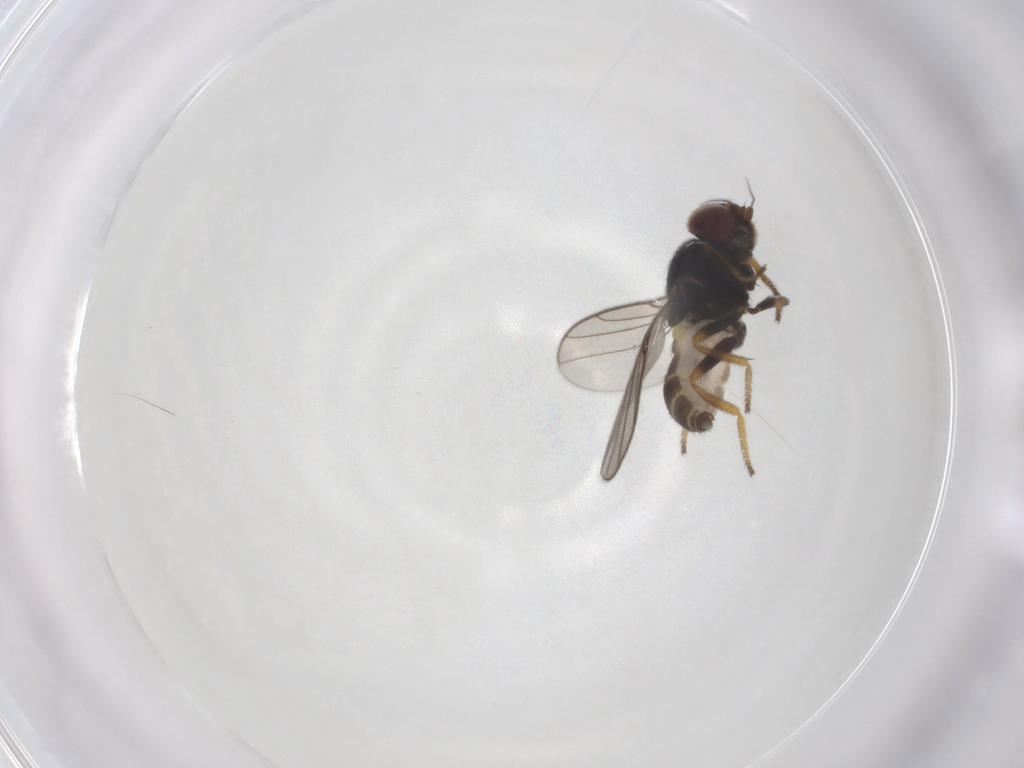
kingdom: Animalia
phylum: Arthropoda
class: Insecta
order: Diptera
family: Chloropidae
